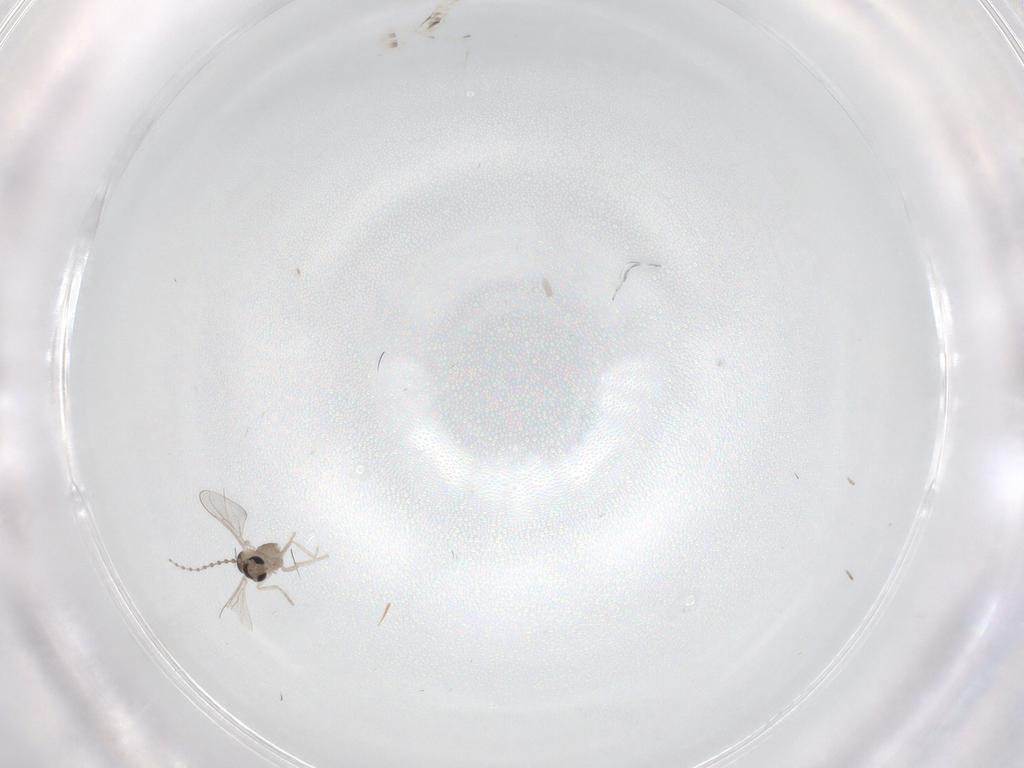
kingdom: Animalia
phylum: Arthropoda
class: Insecta
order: Diptera
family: Cecidomyiidae
